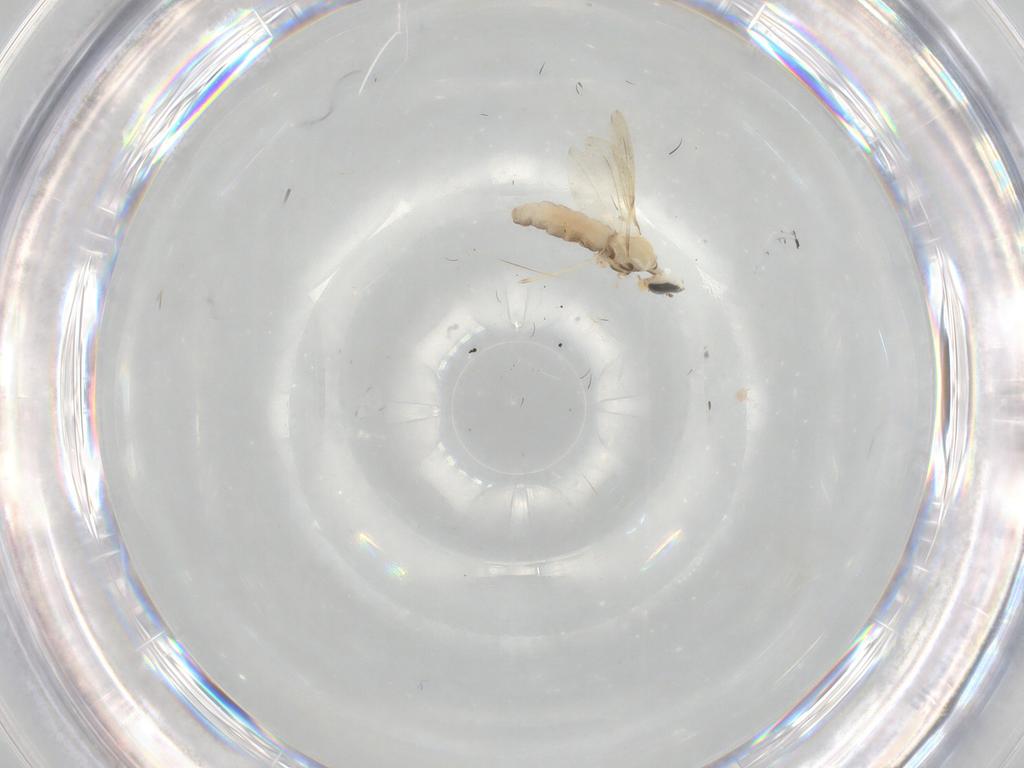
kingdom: Animalia
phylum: Arthropoda
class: Insecta
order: Diptera
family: Cecidomyiidae
